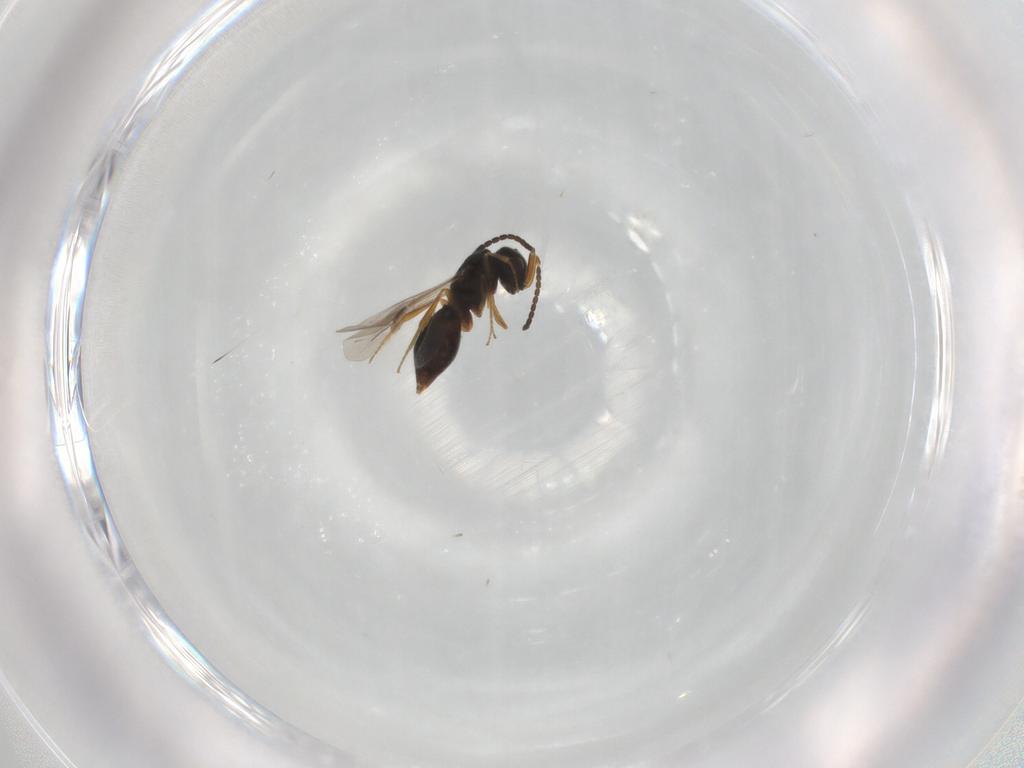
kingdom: Animalia
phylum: Arthropoda
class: Insecta
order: Hymenoptera
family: Megaspilidae
